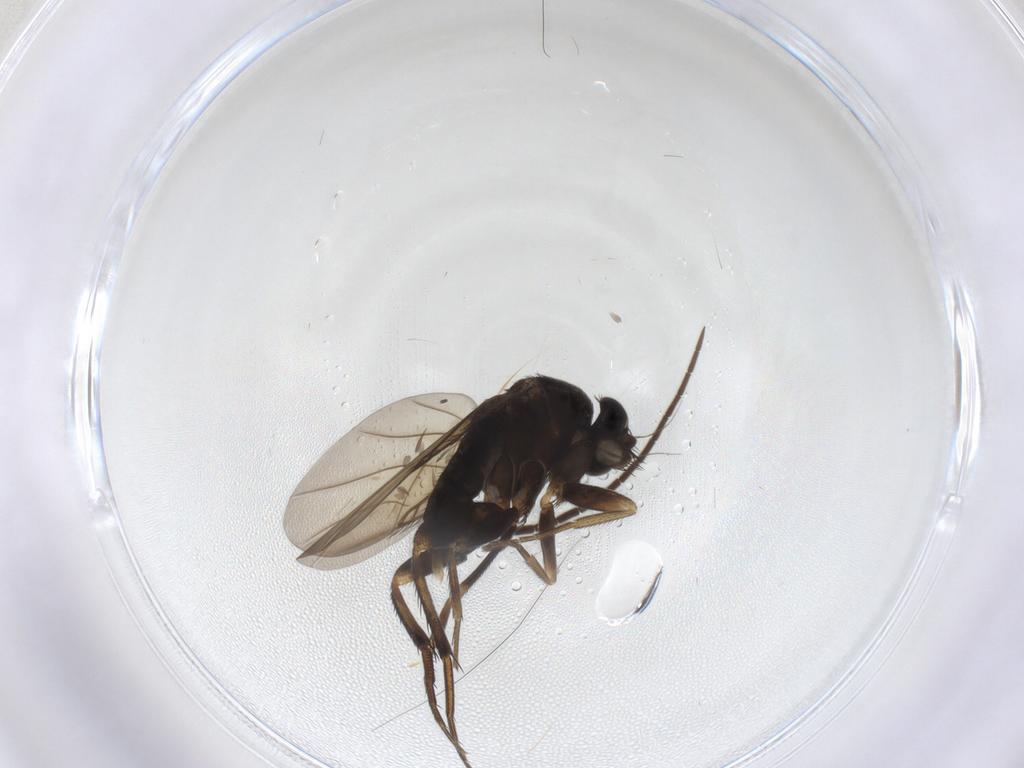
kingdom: Animalia
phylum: Arthropoda
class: Insecta
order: Diptera
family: Phoridae
